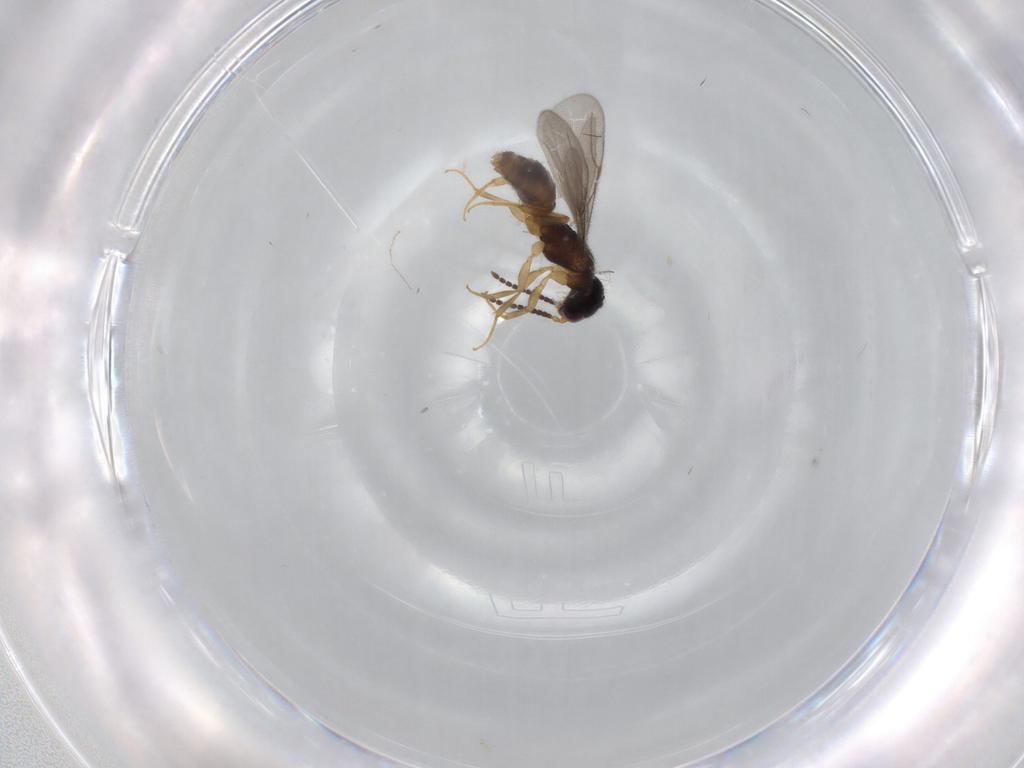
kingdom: Animalia
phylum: Arthropoda
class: Insecta
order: Hymenoptera
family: Bethylidae
